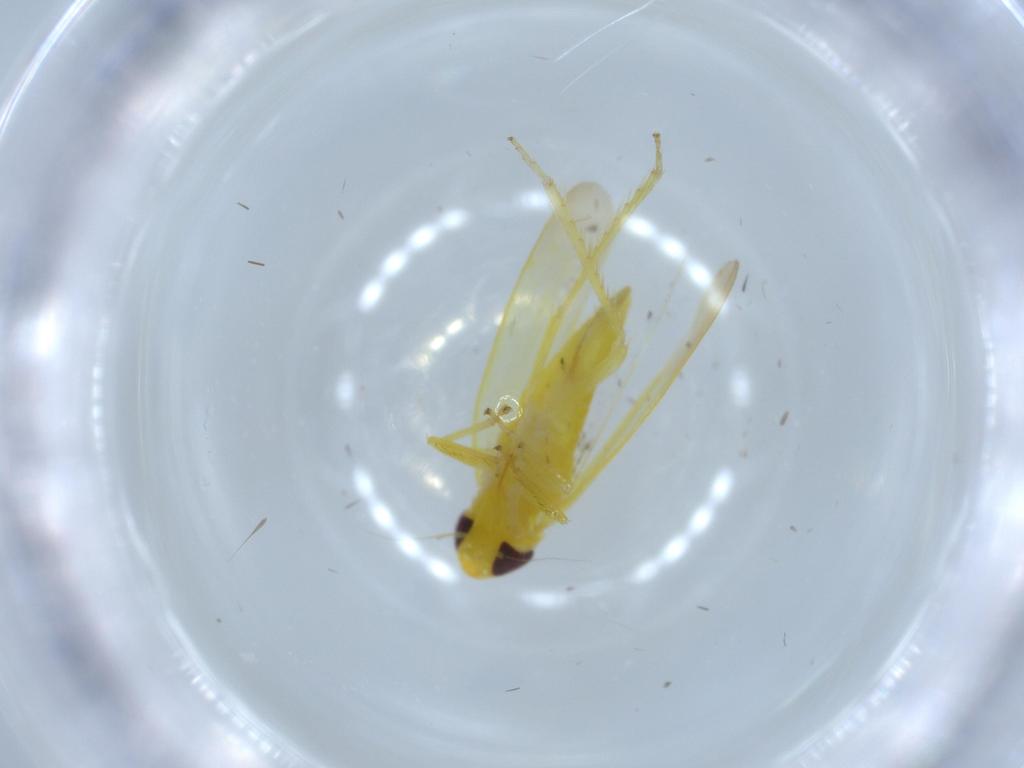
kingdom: Animalia
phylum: Arthropoda
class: Insecta
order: Hemiptera
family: Cicadellidae
